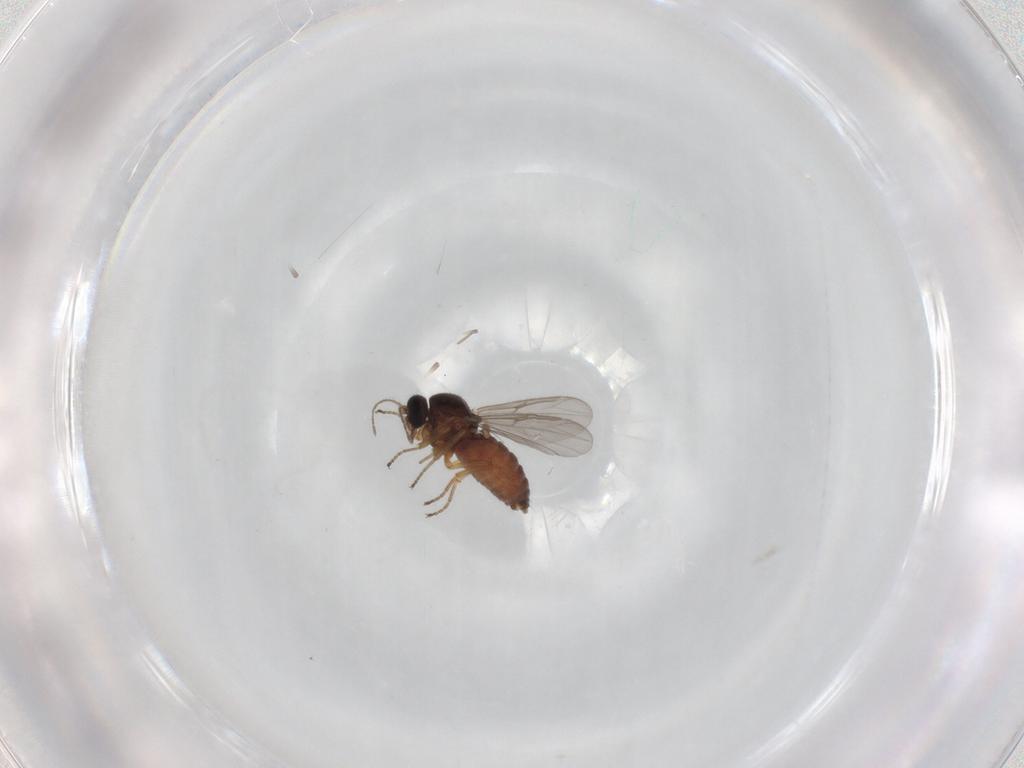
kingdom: Animalia
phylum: Arthropoda
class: Insecta
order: Diptera
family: Ceratopogonidae
